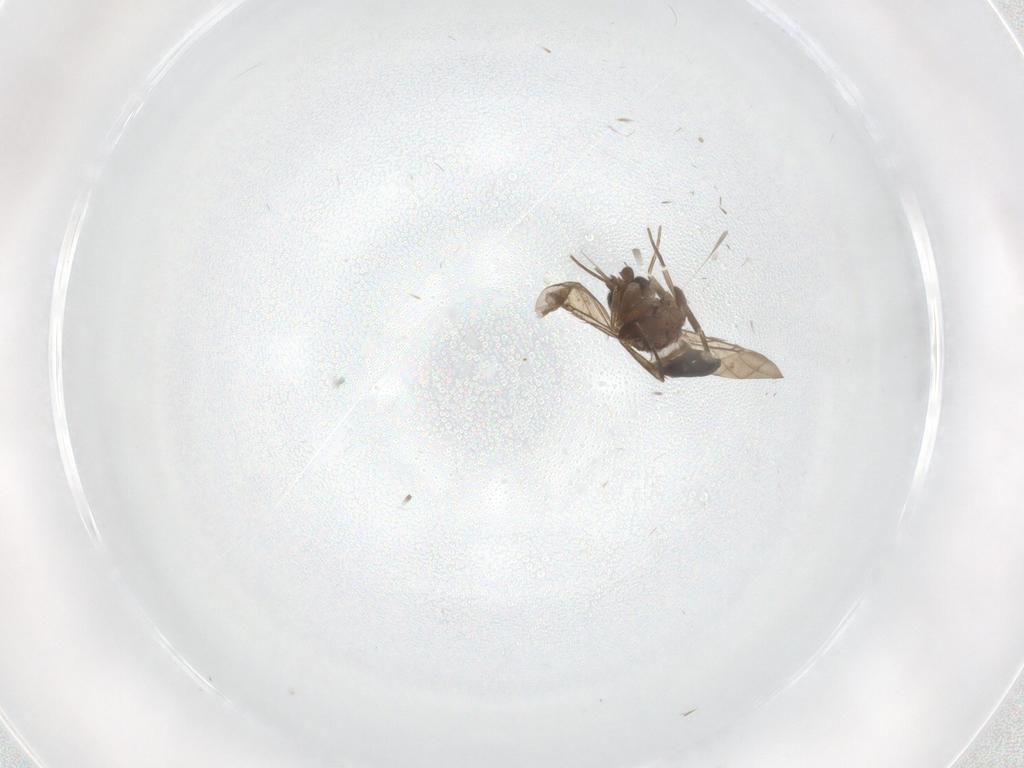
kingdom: Animalia
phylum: Arthropoda
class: Insecta
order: Diptera
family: Phoridae
